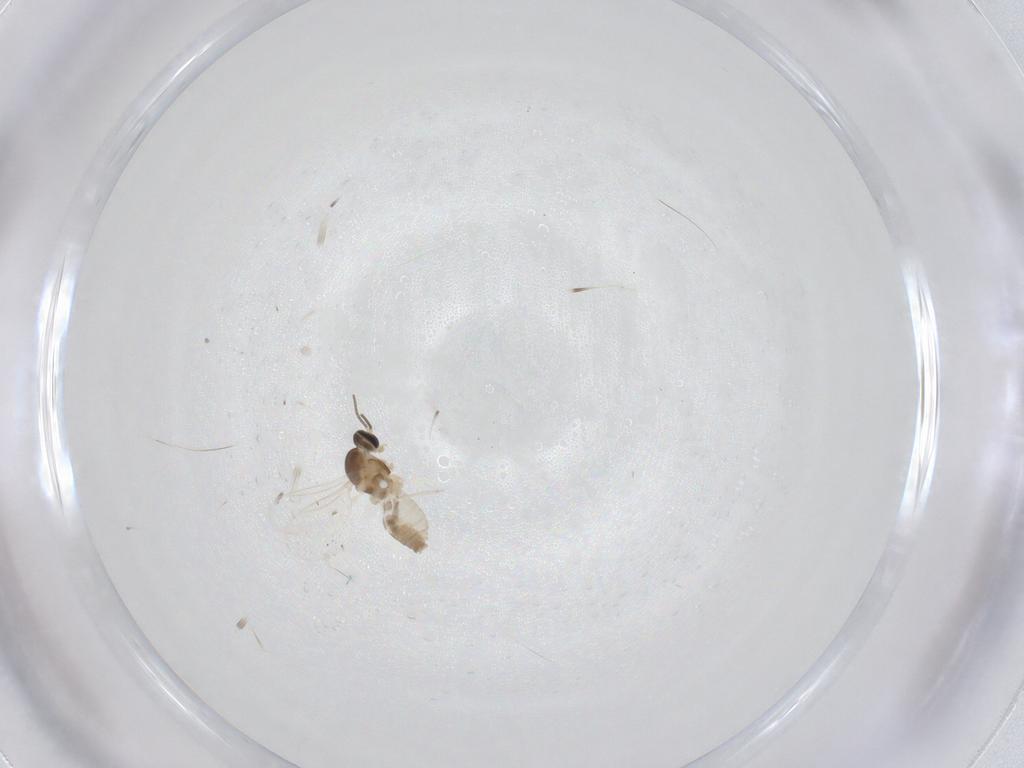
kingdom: Animalia
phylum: Arthropoda
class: Insecta
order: Diptera
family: Cecidomyiidae
